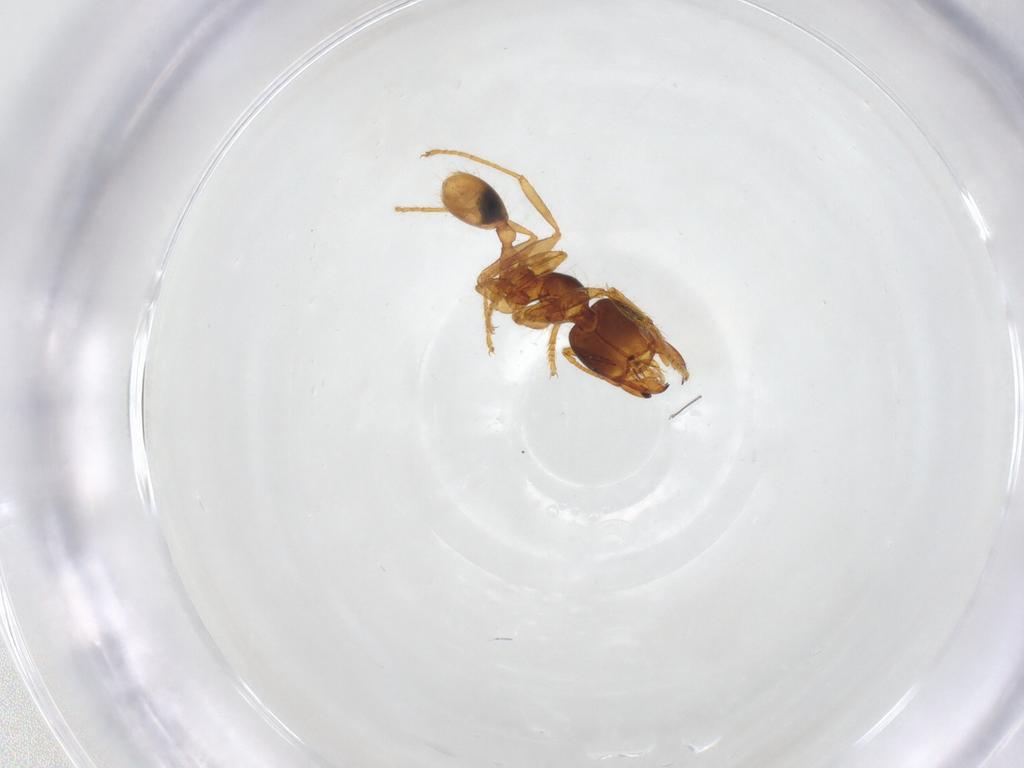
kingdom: Animalia
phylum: Arthropoda
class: Insecta
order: Hymenoptera
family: Formicidae
